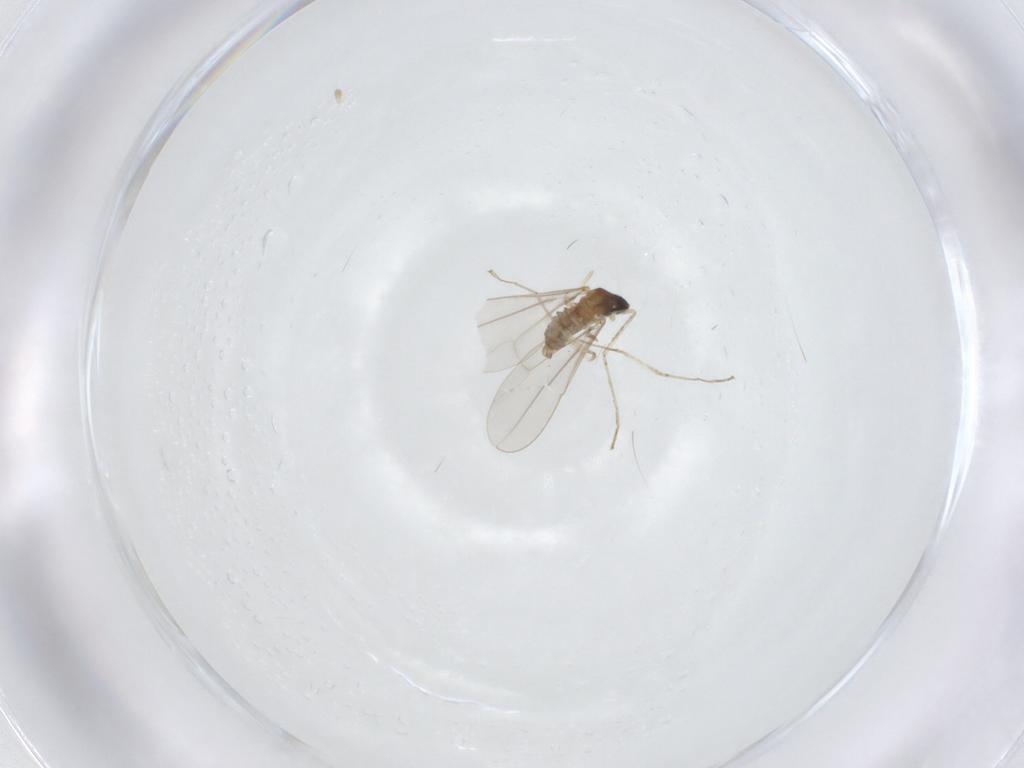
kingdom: Animalia
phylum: Arthropoda
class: Insecta
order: Diptera
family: Cecidomyiidae
